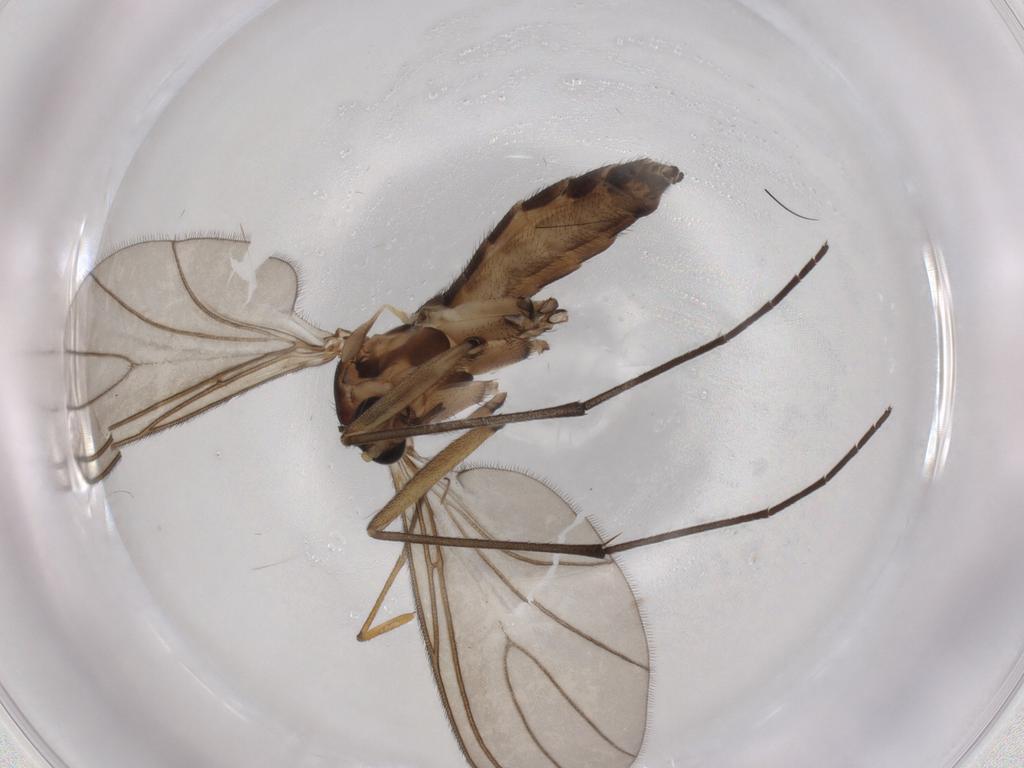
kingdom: Animalia
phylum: Arthropoda
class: Insecta
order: Diptera
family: Sciaridae
